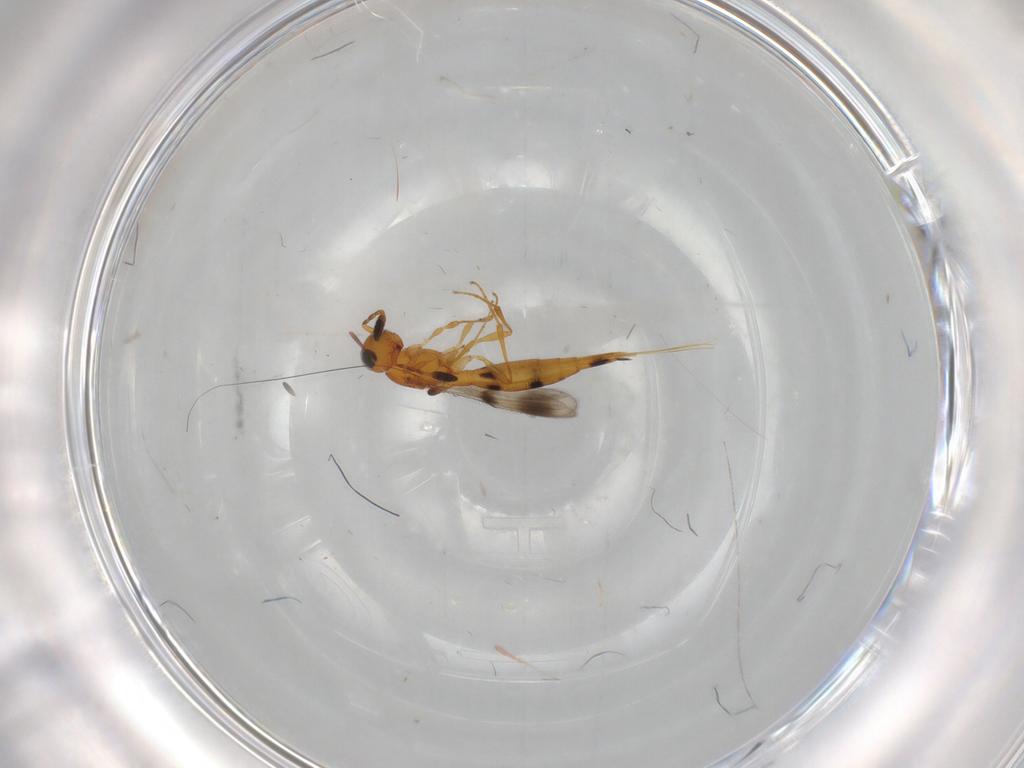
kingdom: Animalia
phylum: Arthropoda
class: Insecta
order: Hymenoptera
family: Scelionidae
